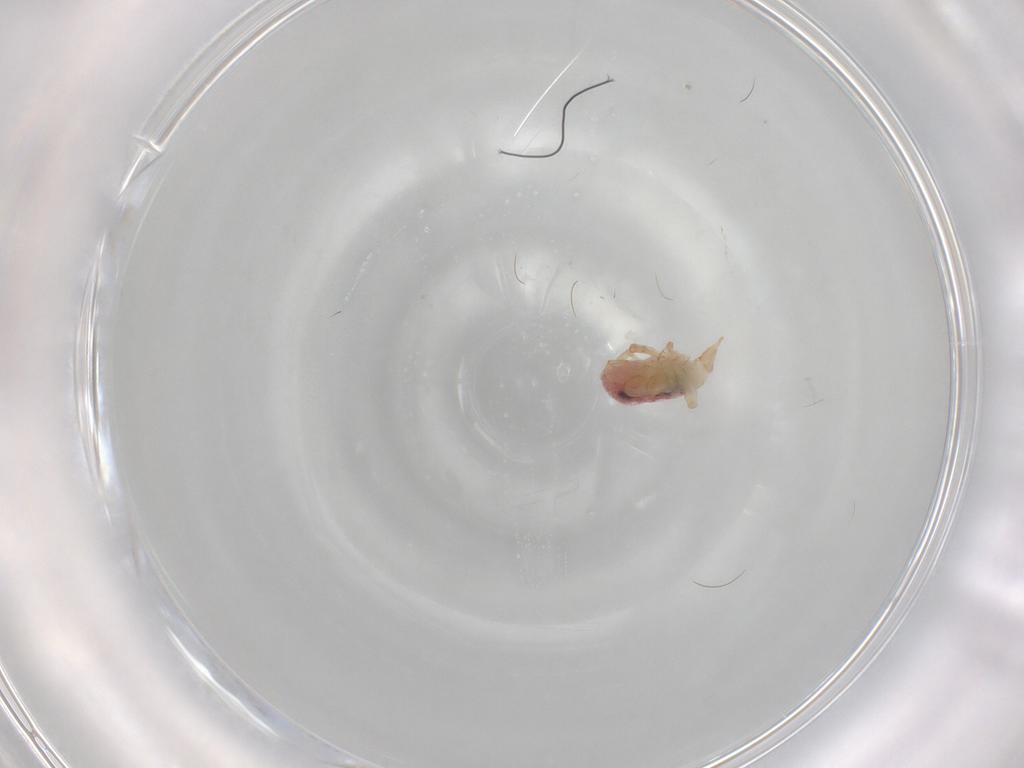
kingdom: Animalia
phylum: Arthropoda
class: Arachnida
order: Trombidiformes
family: Bdellidae
